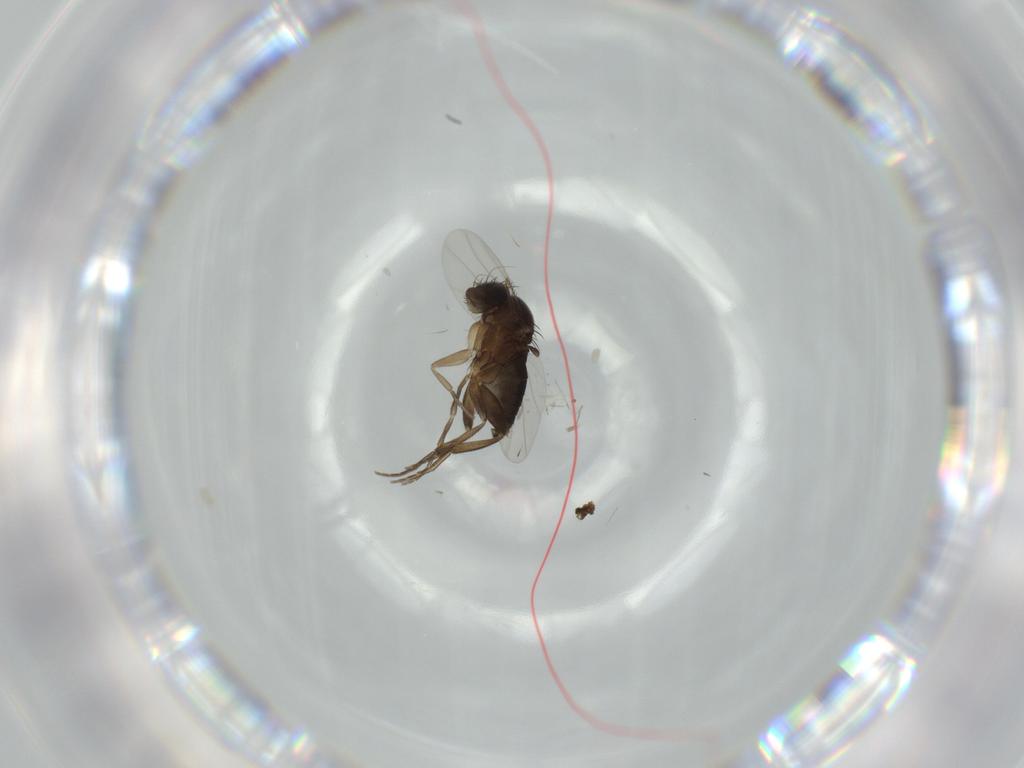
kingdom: Animalia
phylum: Arthropoda
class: Insecta
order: Diptera
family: Phoridae
